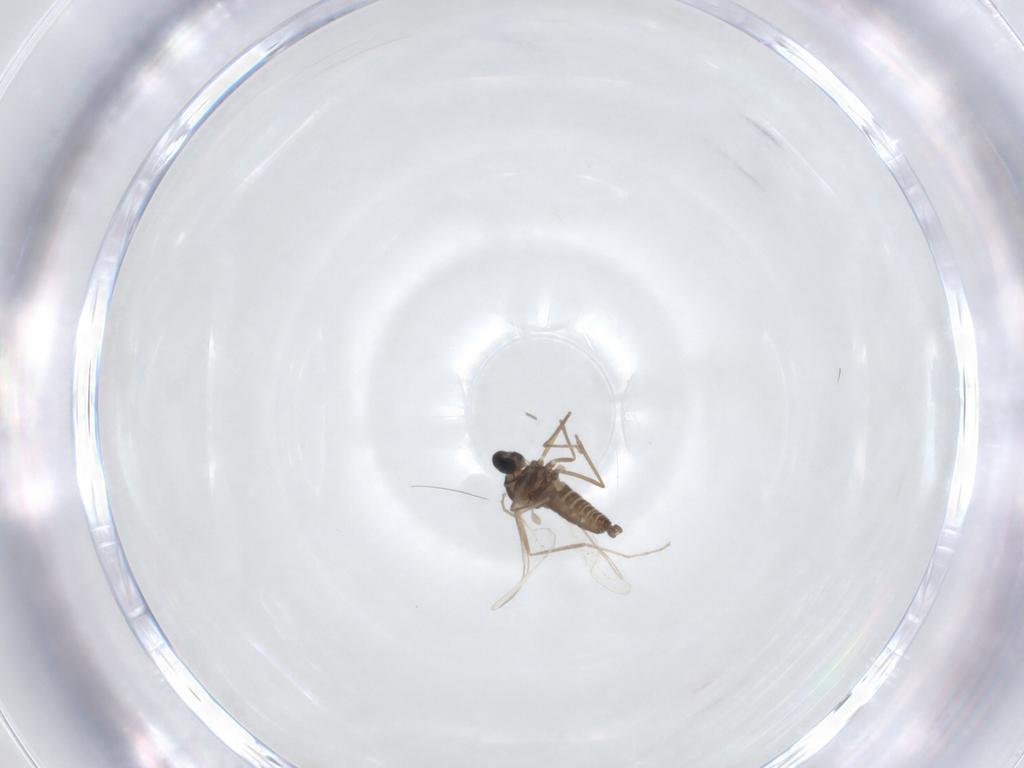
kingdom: Animalia
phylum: Arthropoda
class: Insecta
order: Diptera
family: Cecidomyiidae
